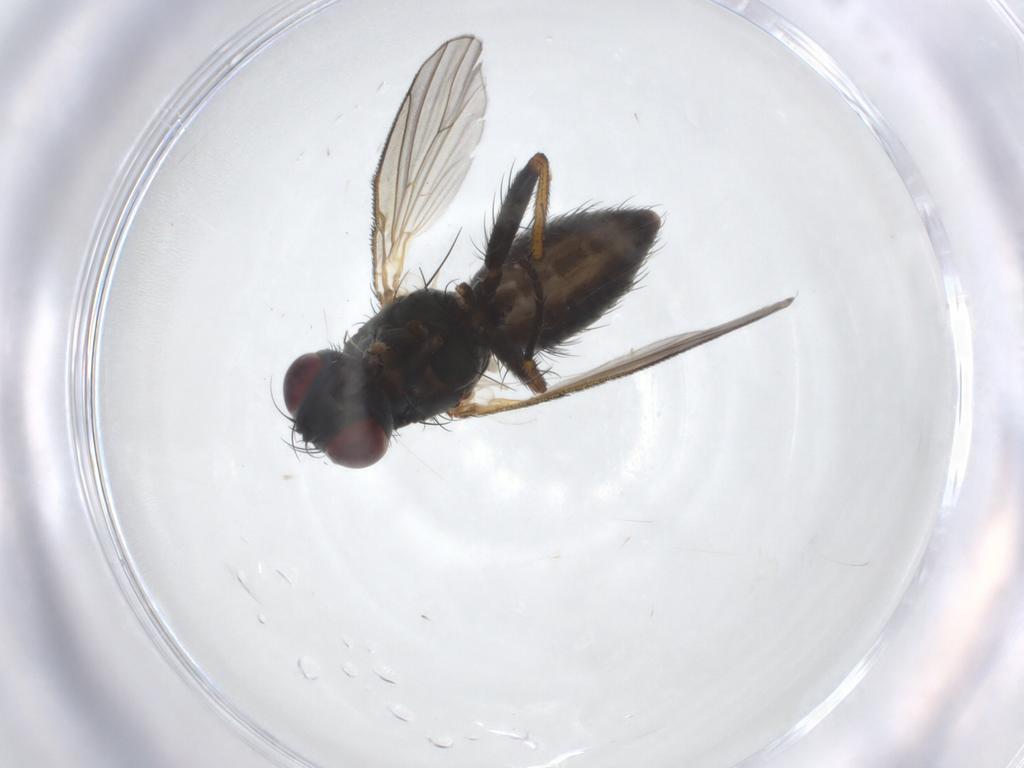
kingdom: Animalia
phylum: Arthropoda
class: Insecta
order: Diptera
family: Muscidae
